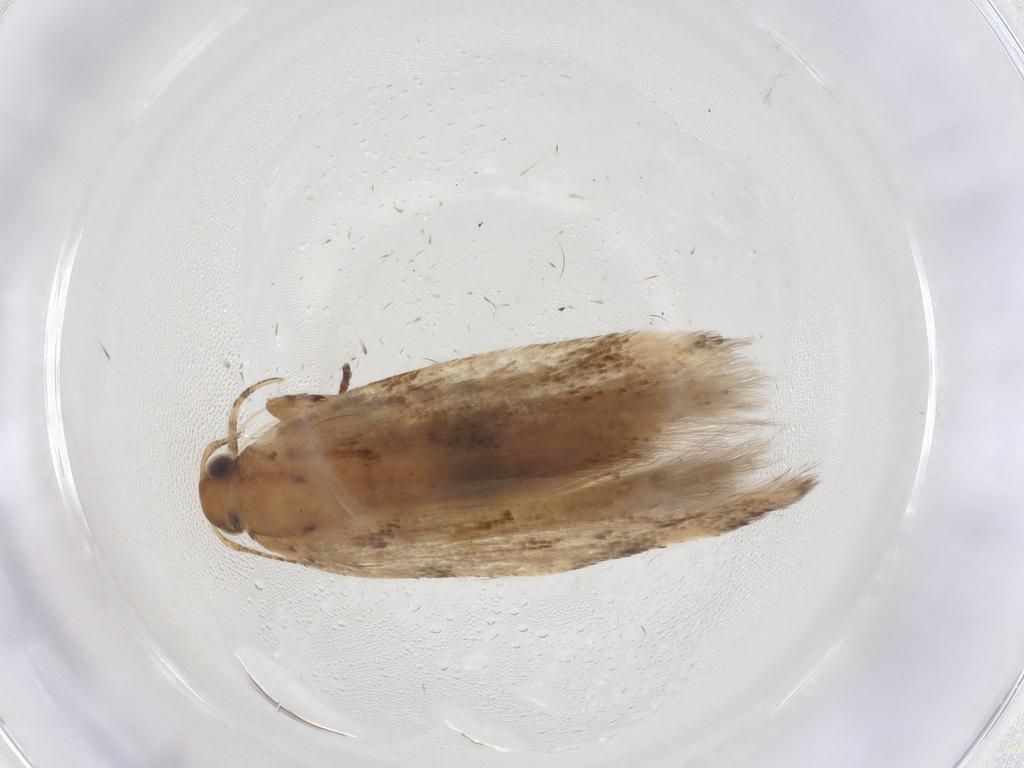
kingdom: Animalia
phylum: Arthropoda
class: Insecta
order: Lepidoptera
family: Gelechiidae
